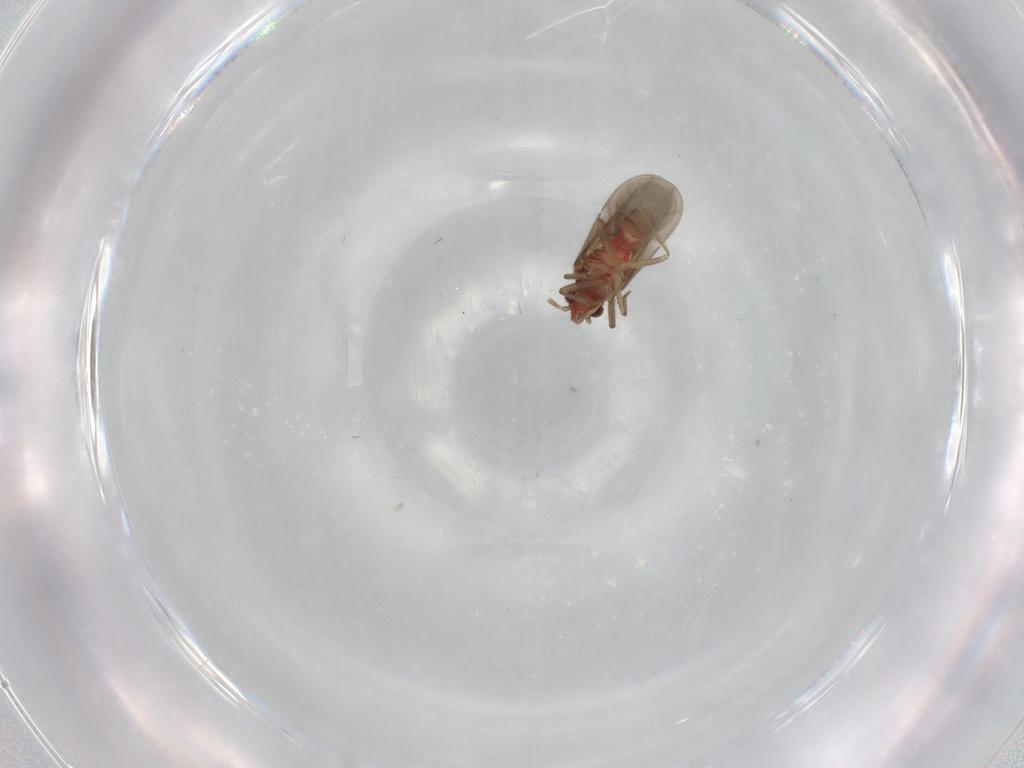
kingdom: Animalia
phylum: Arthropoda
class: Insecta
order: Hemiptera
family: Ceratocombidae
